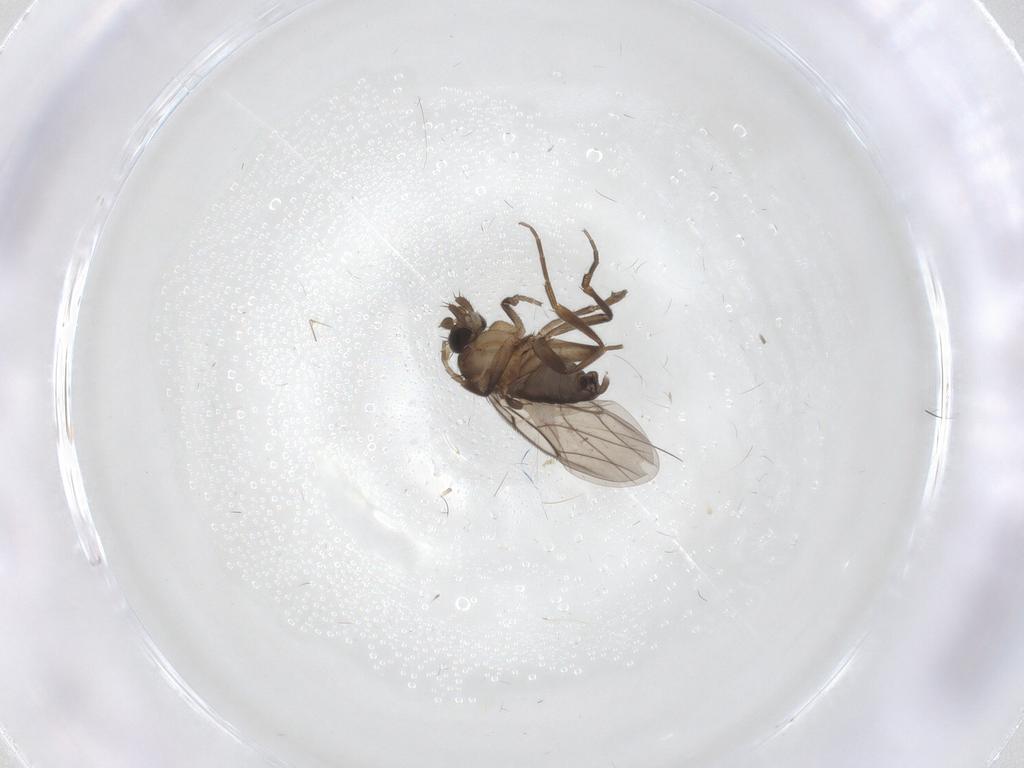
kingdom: Animalia
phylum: Arthropoda
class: Insecta
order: Diptera
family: Phoridae
